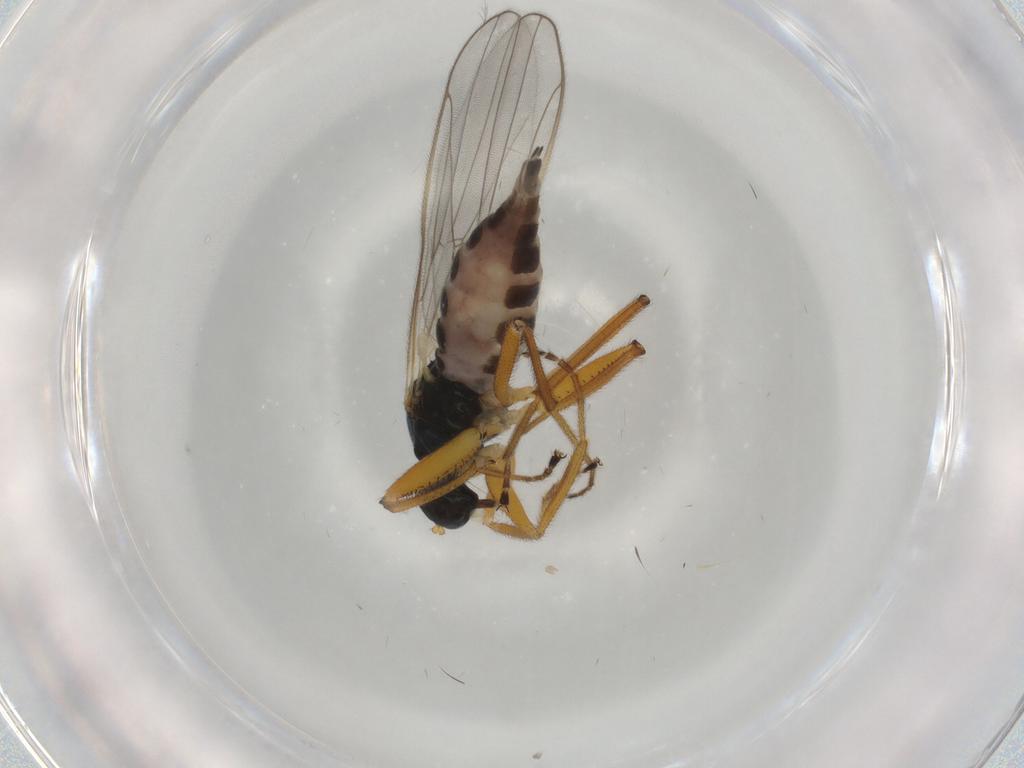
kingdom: Animalia
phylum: Arthropoda
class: Insecta
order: Diptera
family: Hybotidae
